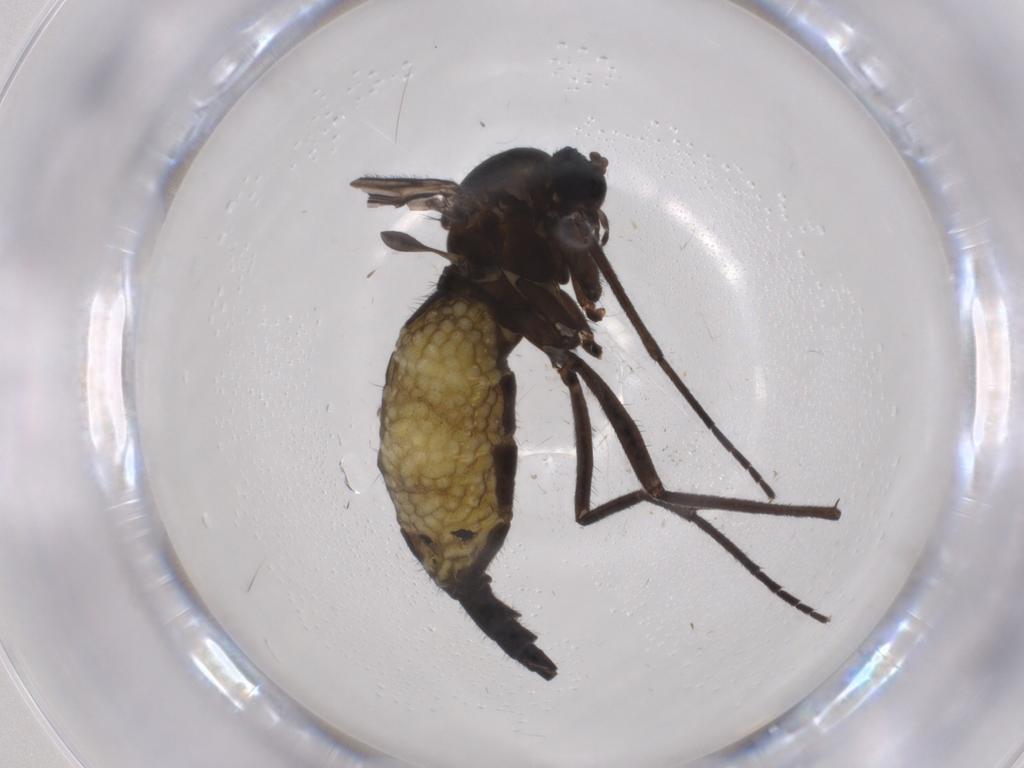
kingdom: Animalia
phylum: Arthropoda
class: Insecta
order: Diptera
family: Sciaridae
